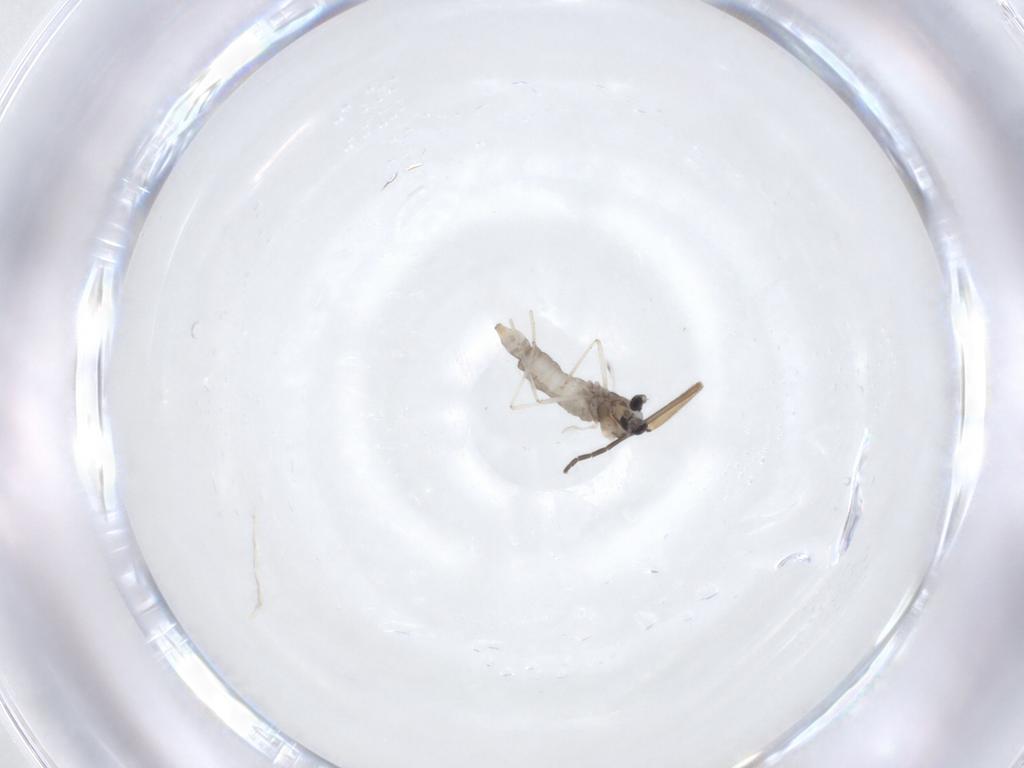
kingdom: Animalia
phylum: Arthropoda
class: Insecta
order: Diptera
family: Cecidomyiidae
